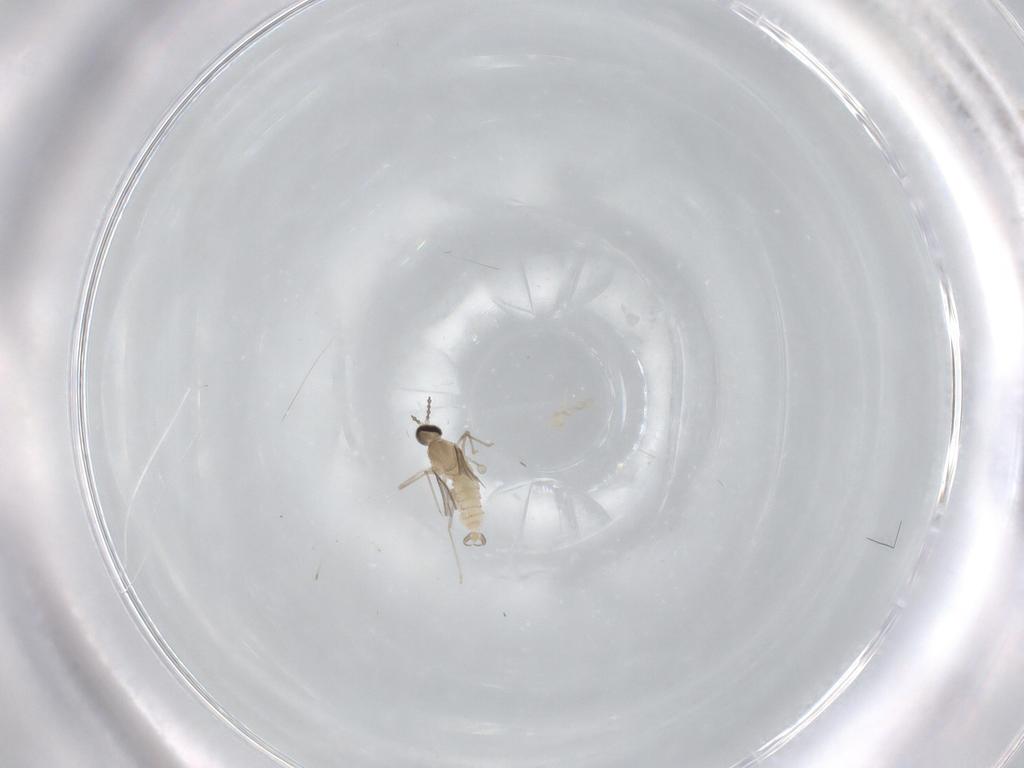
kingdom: Animalia
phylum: Arthropoda
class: Insecta
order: Diptera
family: Cecidomyiidae
